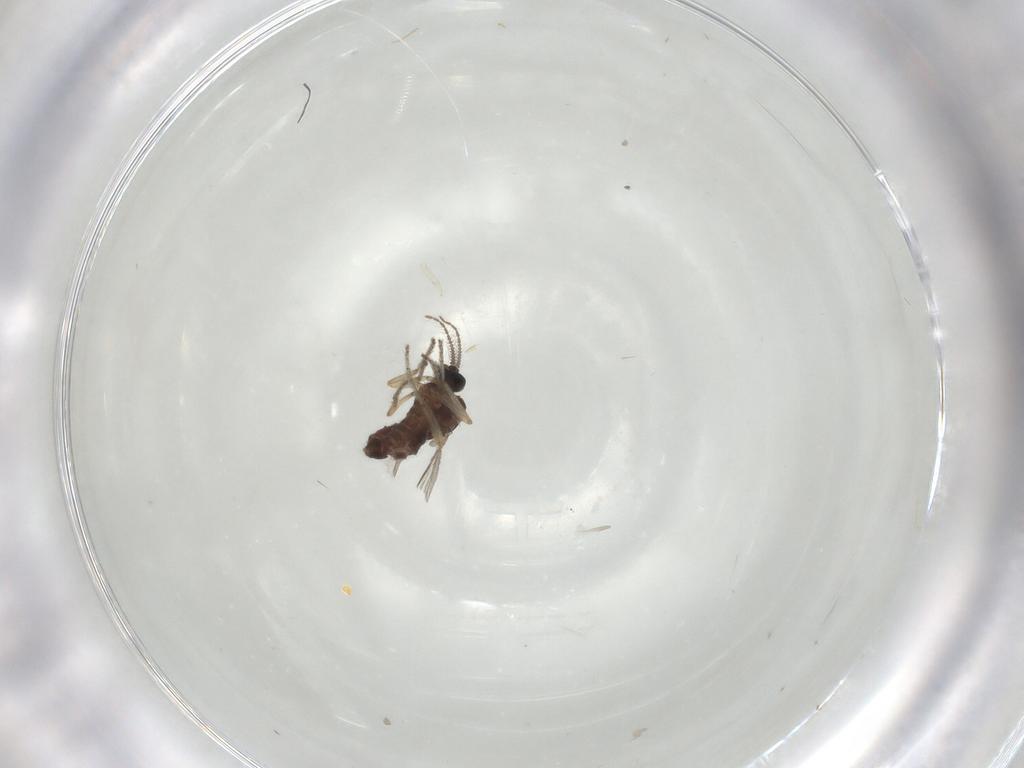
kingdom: Animalia
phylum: Arthropoda
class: Insecta
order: Diptera
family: Ceratopogonidae
